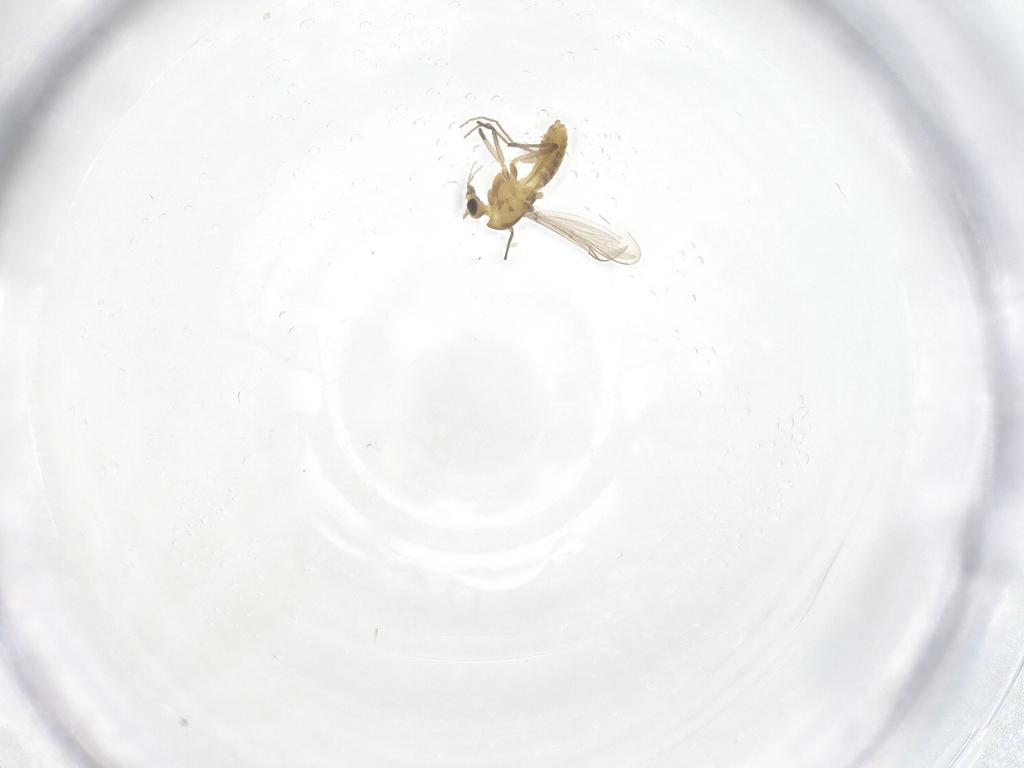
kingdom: Animalia
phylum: Arthropoda
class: Insecta
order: Diptera
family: Chironomidae
